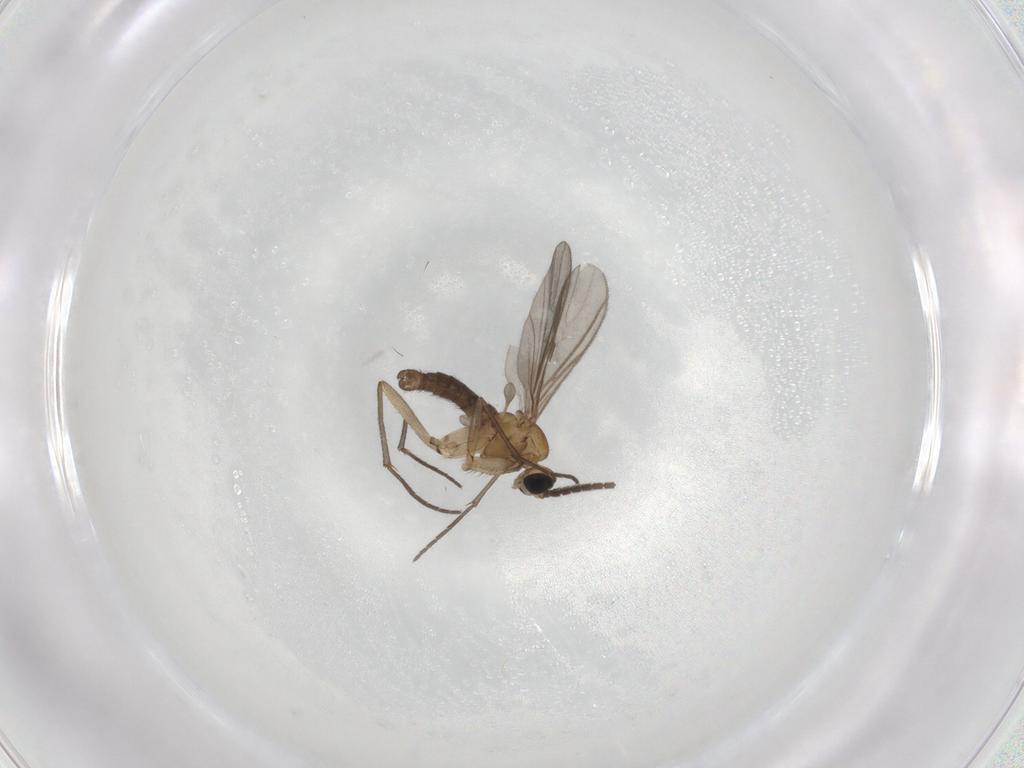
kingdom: Animalia
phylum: Arthropoda
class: Insecta
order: Diptera
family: Sciaridae
